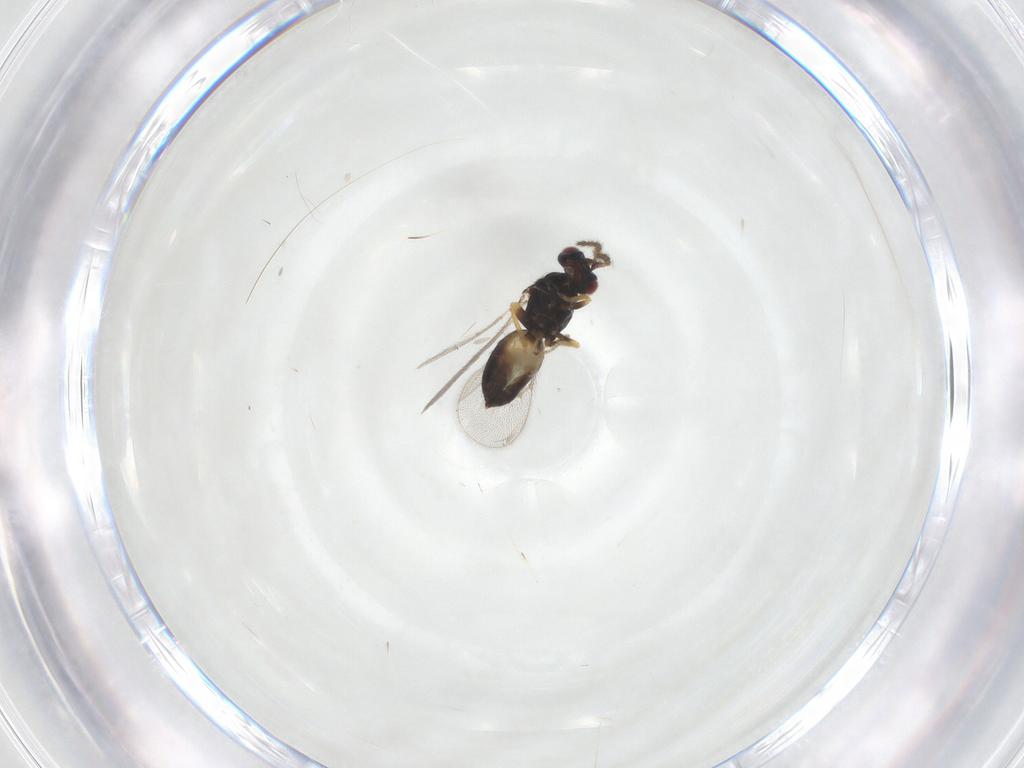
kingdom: Animalia
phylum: Arthropoda
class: Insecta
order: Hymenoptera
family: Eulophidae
